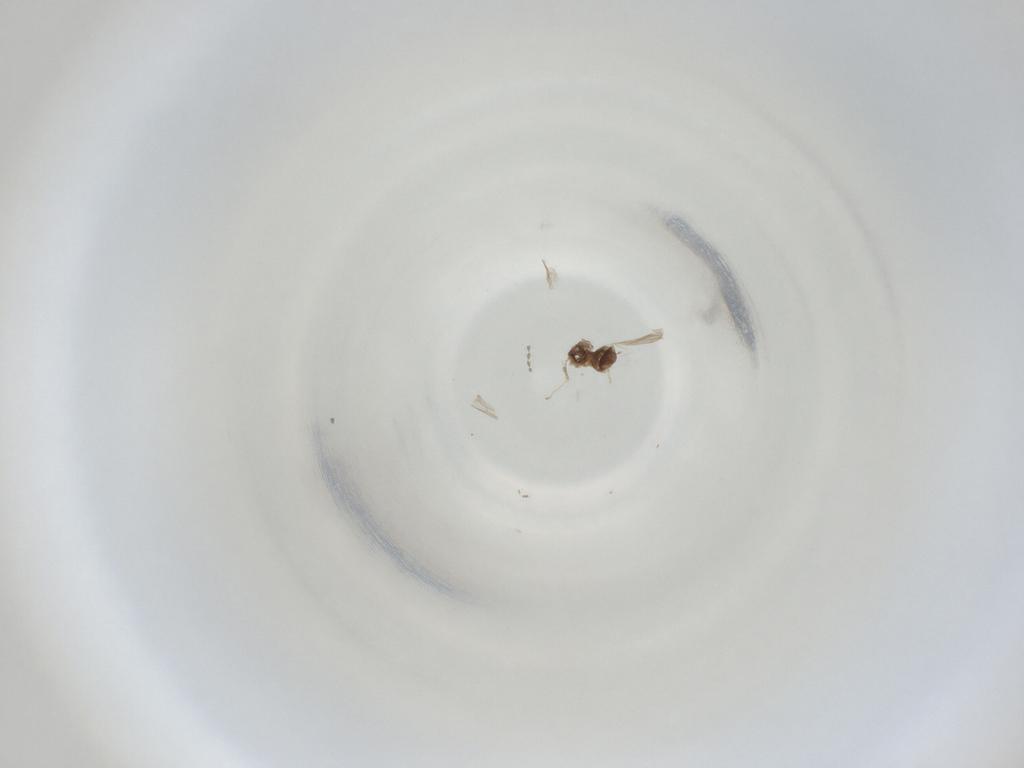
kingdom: Animalia
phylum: Arthropoda
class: Insecta
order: Diptera
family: Cecidomyiidae
